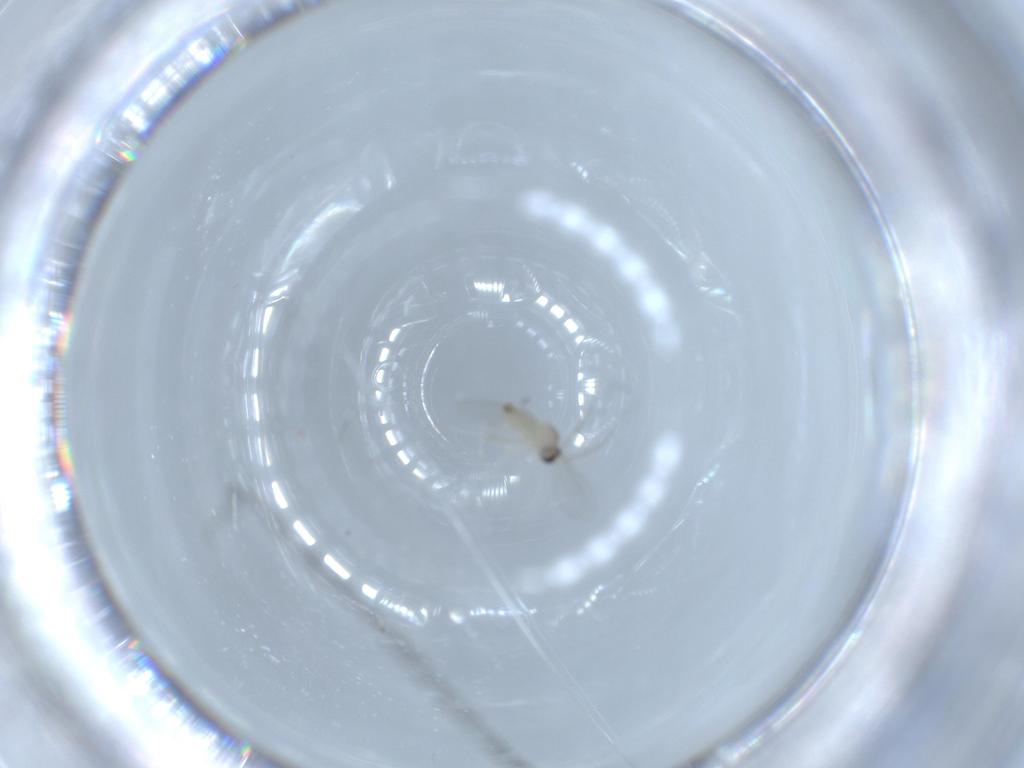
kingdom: Animalia
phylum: Arthropoda
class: Insecta
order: Diptera
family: Cecidomyiidae
